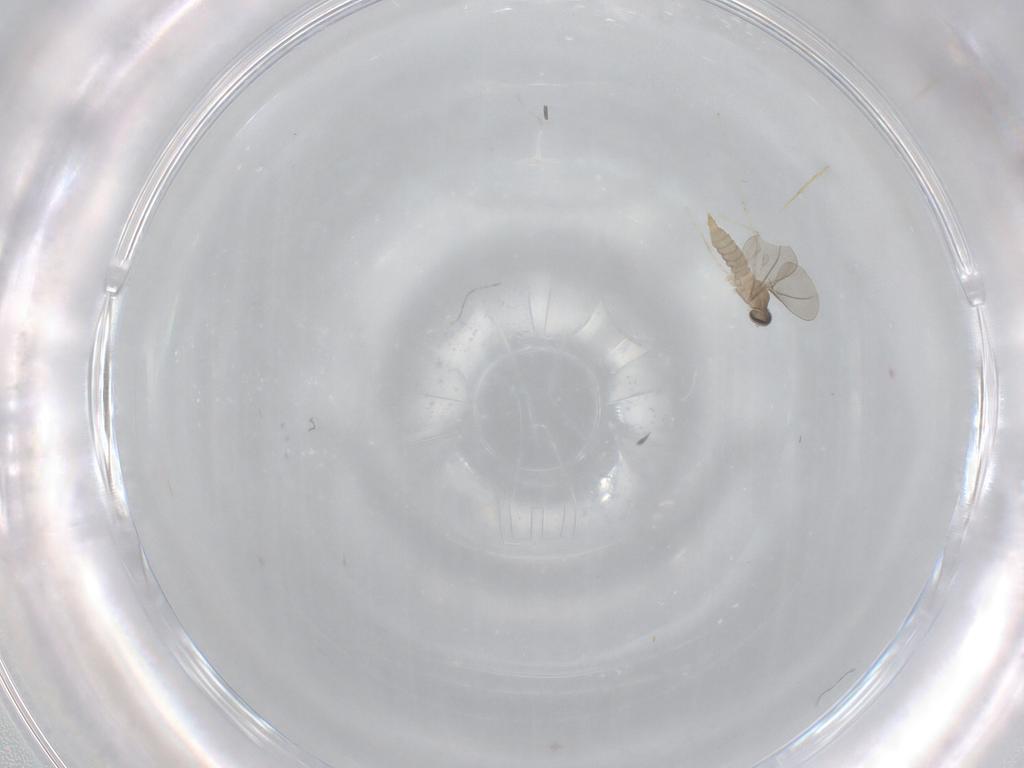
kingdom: Animalia
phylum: Arthropoda
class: Insecta
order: Diptera
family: Cecidomyiidae
